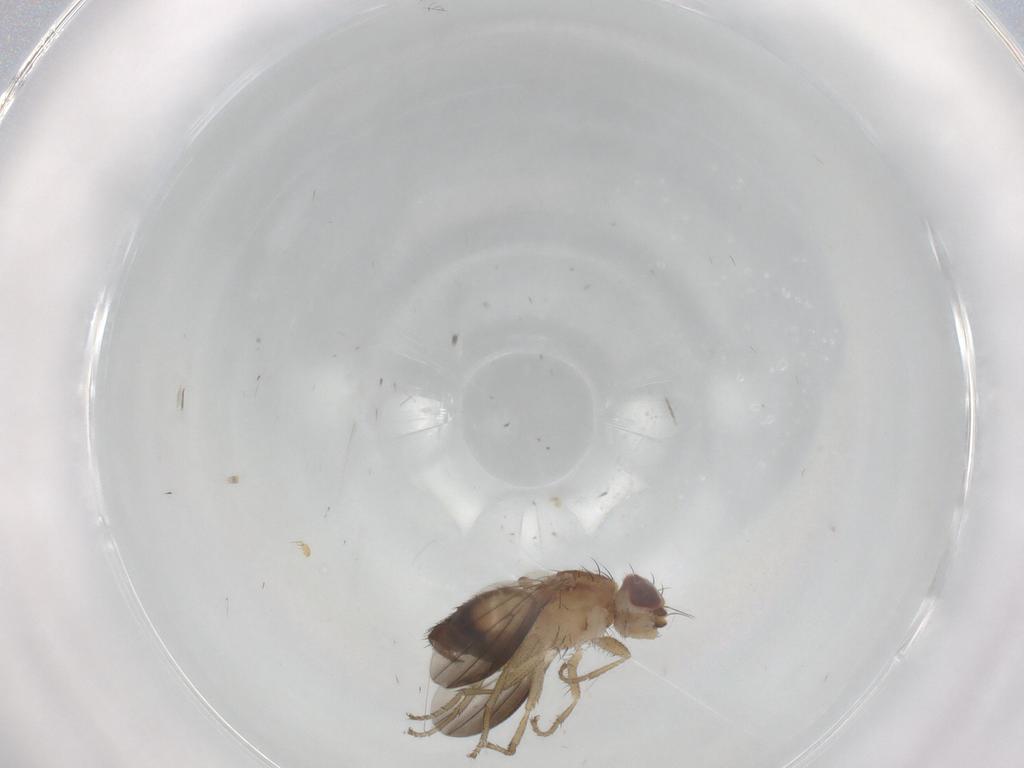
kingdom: Animalia
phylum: Arthropoda
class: Insecta
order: Diptera
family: Heleomyzidae
